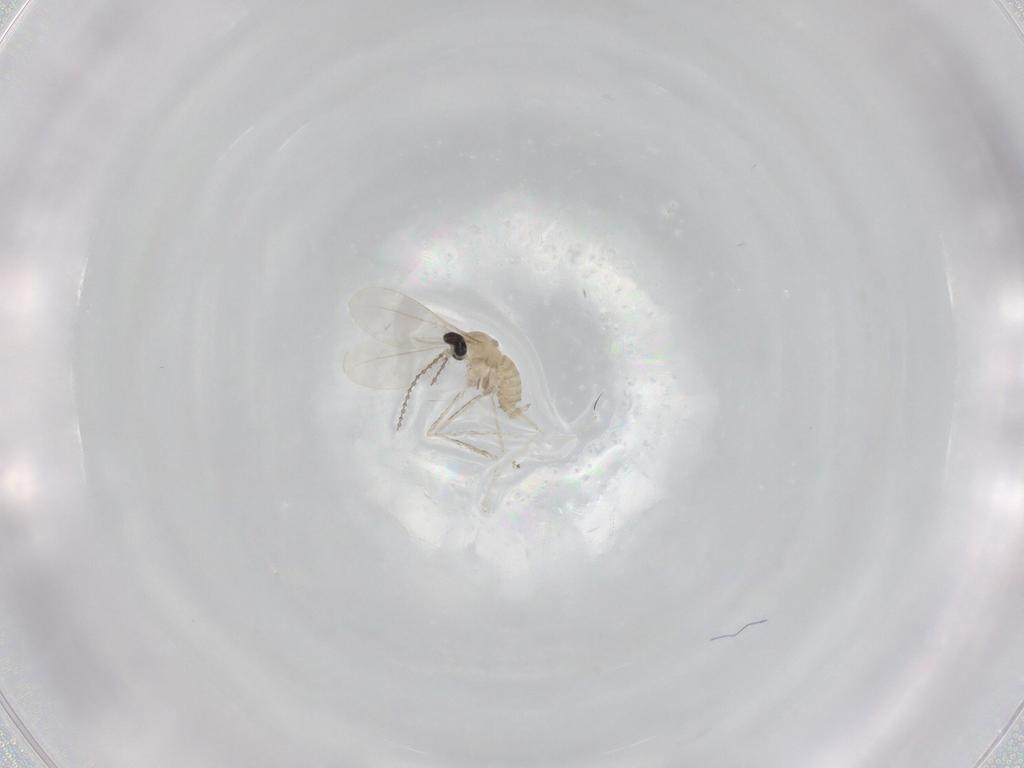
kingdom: Animalia
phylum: Arthropoda
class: Insecta
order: Diptera
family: Cecidomyiidae
